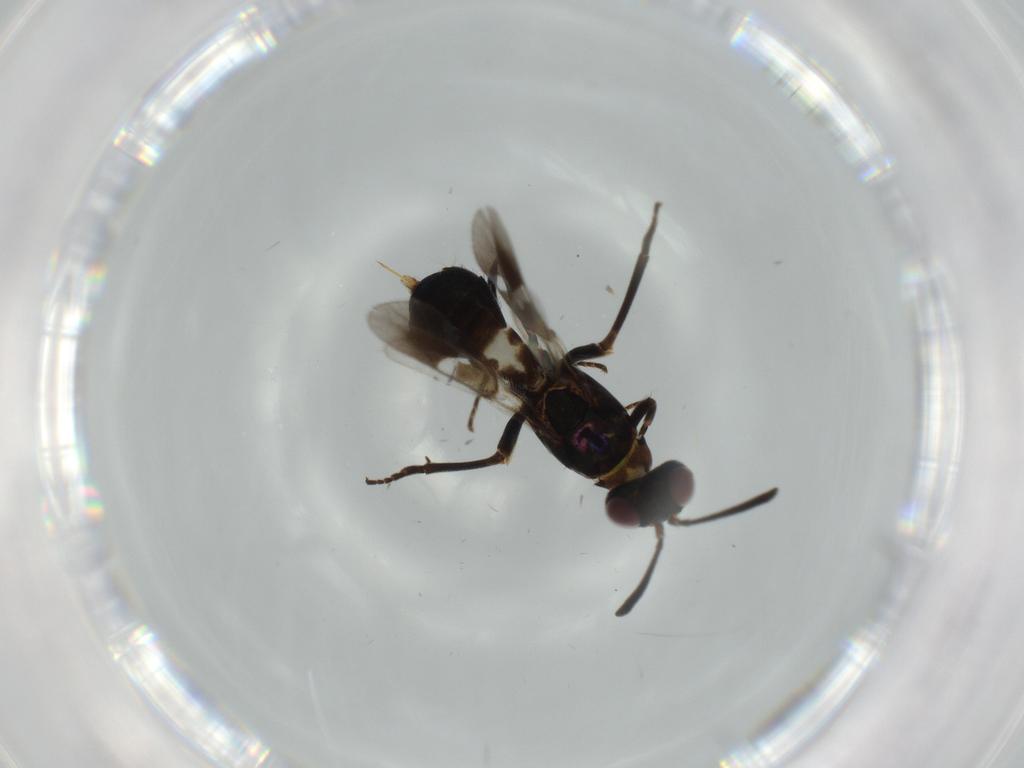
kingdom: Animalia
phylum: Arthropoda
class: Insecta
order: Hymenoptera
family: Eupelmidae
